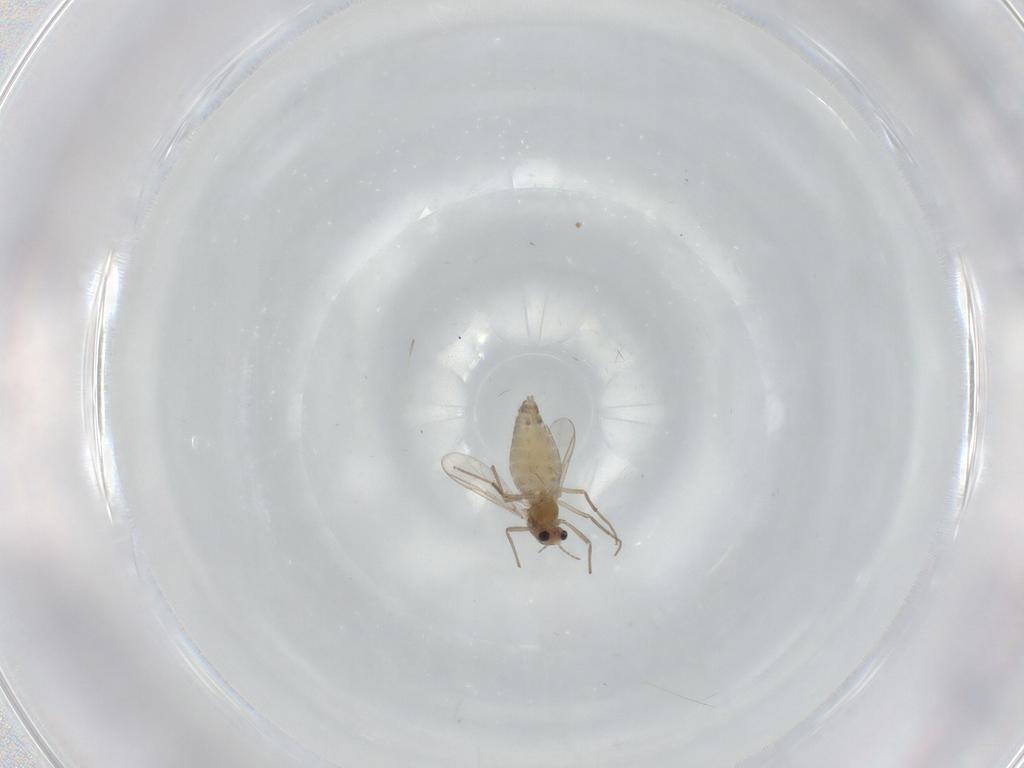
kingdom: Animalia
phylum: Arthropoda
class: Insecta
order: Diptera
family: Chironomidae
